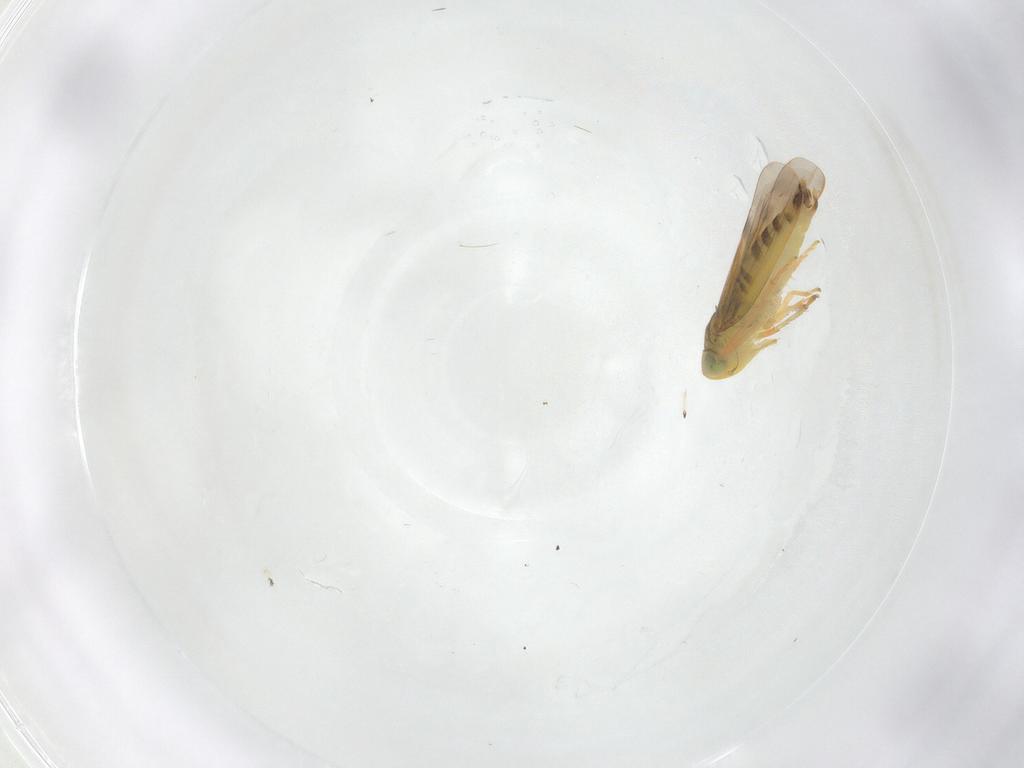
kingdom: Animalia
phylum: Arthropoda
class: Insecta
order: Hemiptera
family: Cicadellidae
